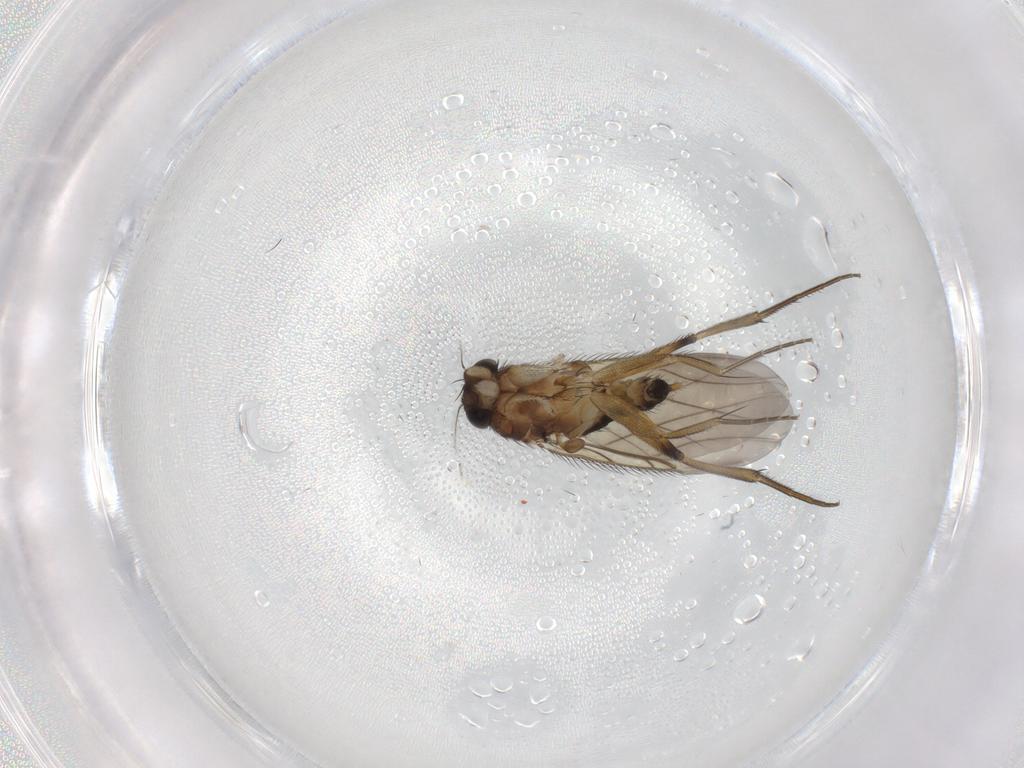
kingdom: Animalia
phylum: Arthropoda
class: Insecta
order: Diptera
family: Phoridae
